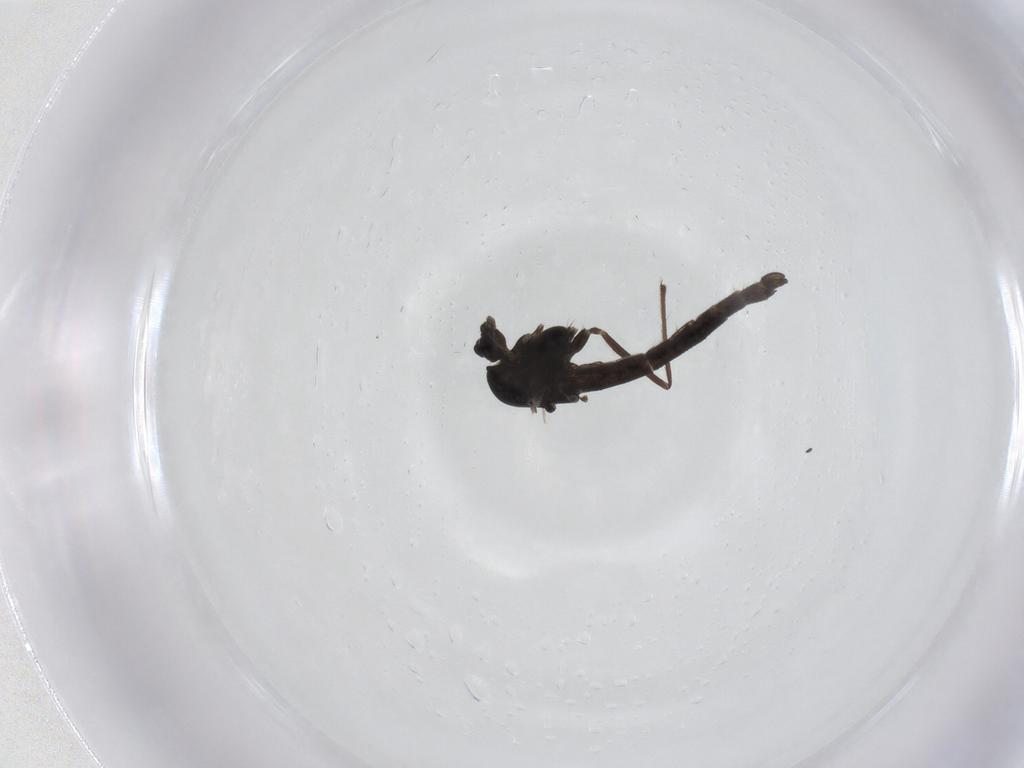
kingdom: Animalia
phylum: Arthropoda
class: Insecta
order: Diptera
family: Chironomidae
